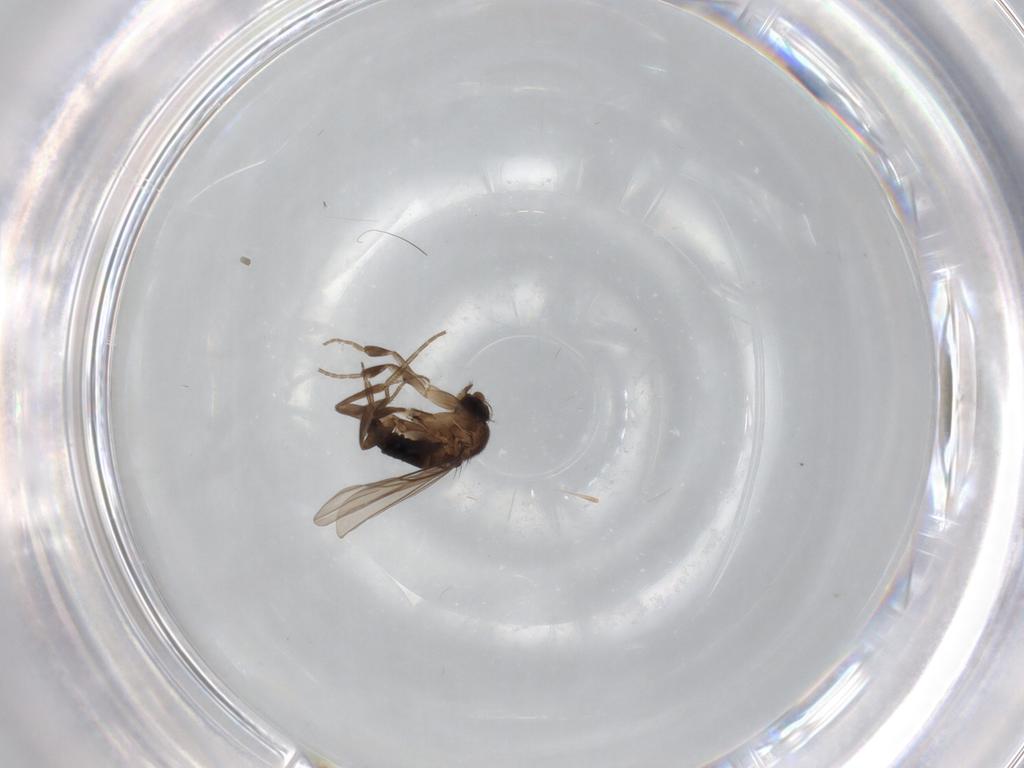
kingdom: Animalia
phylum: Arthropoda
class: Insecta
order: Diptera
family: Phoridae
